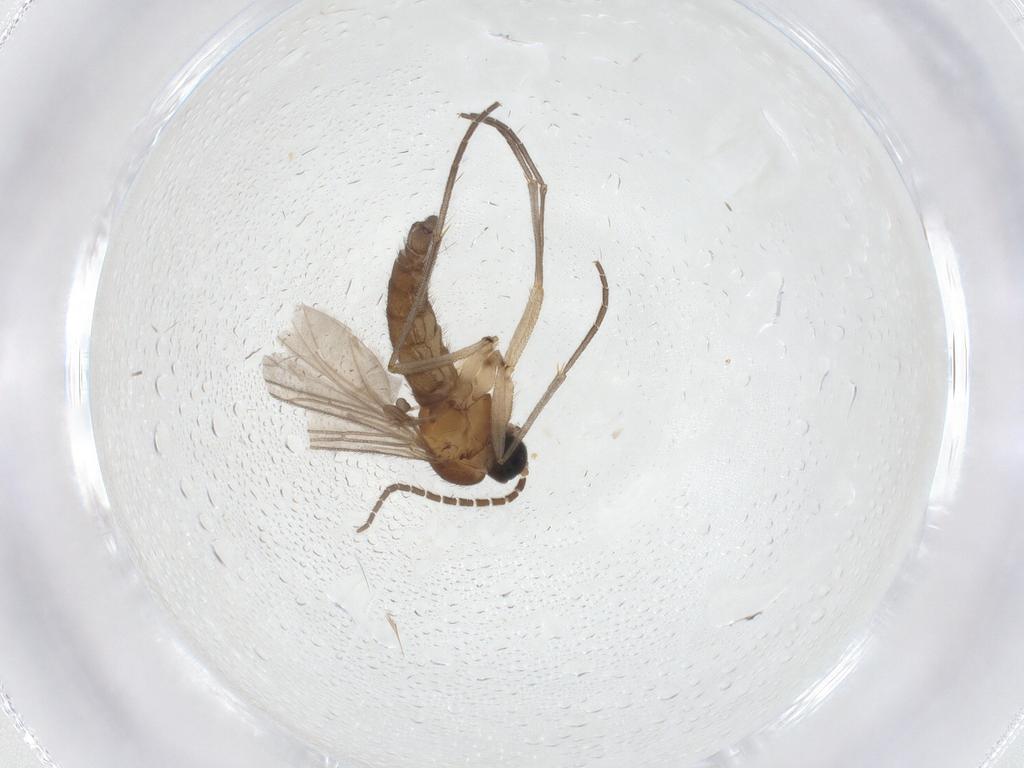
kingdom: Animalia
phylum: Arthropoda
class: Insecta
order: Diptera
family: Sciaridae
